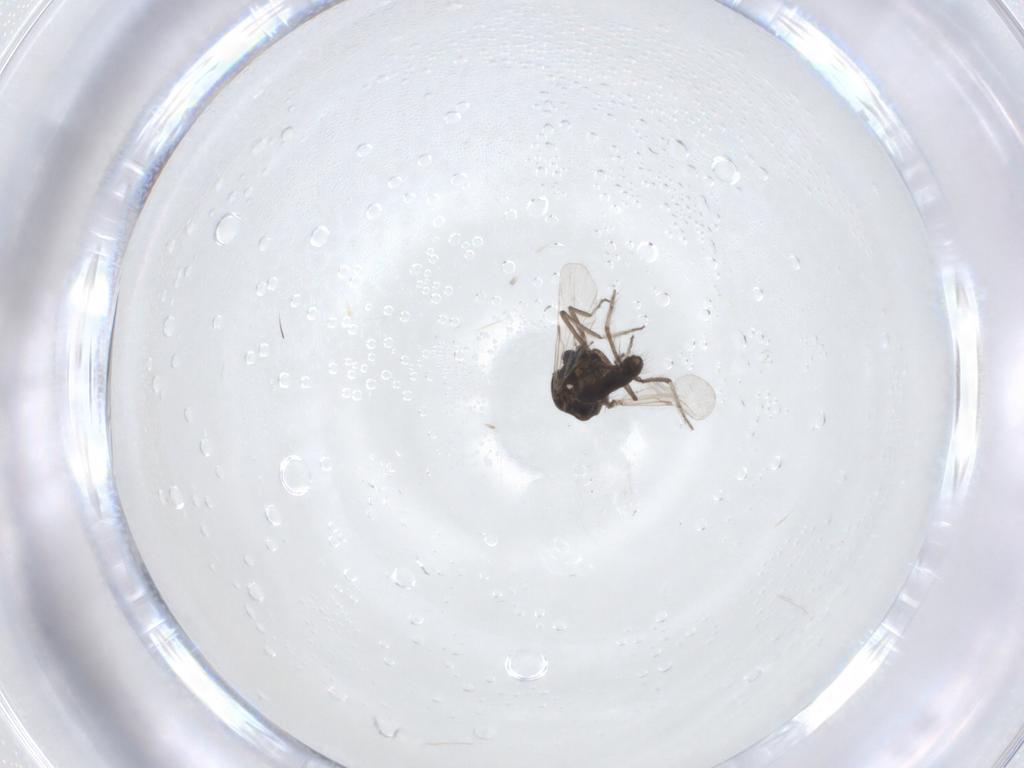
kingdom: Animalia
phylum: Arthropoda
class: Insecta
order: Diptera
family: Ceratopogonidae
